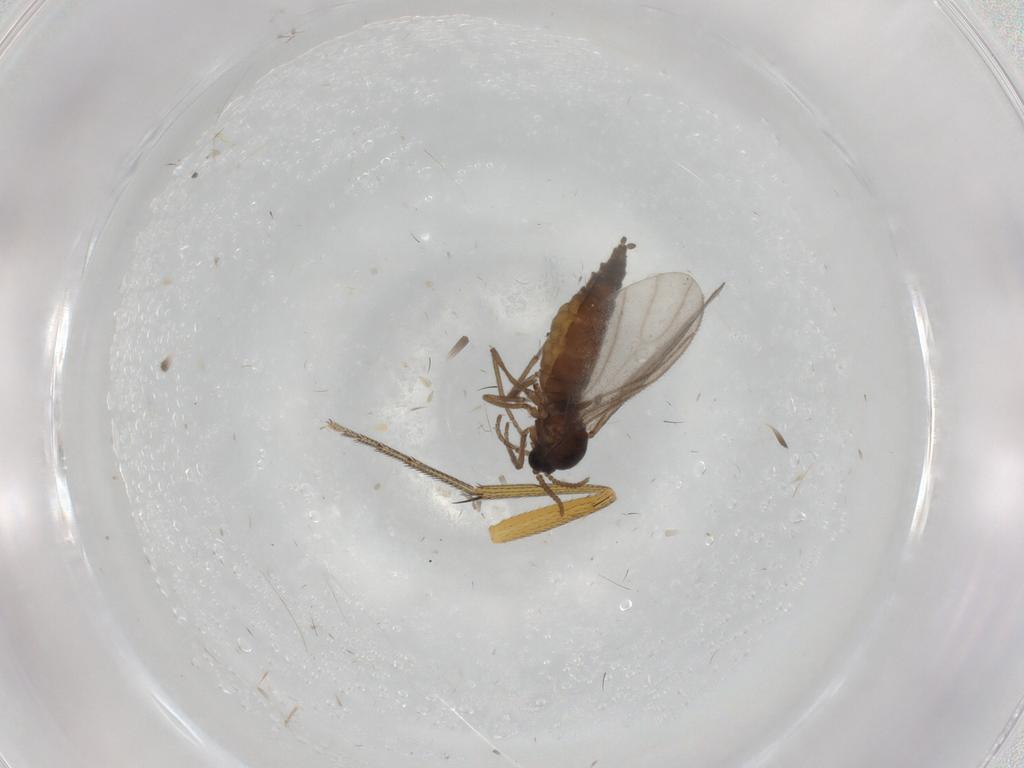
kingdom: Animalia
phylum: Arthropoda
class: Insecta
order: Diptera
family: Sciaridae
